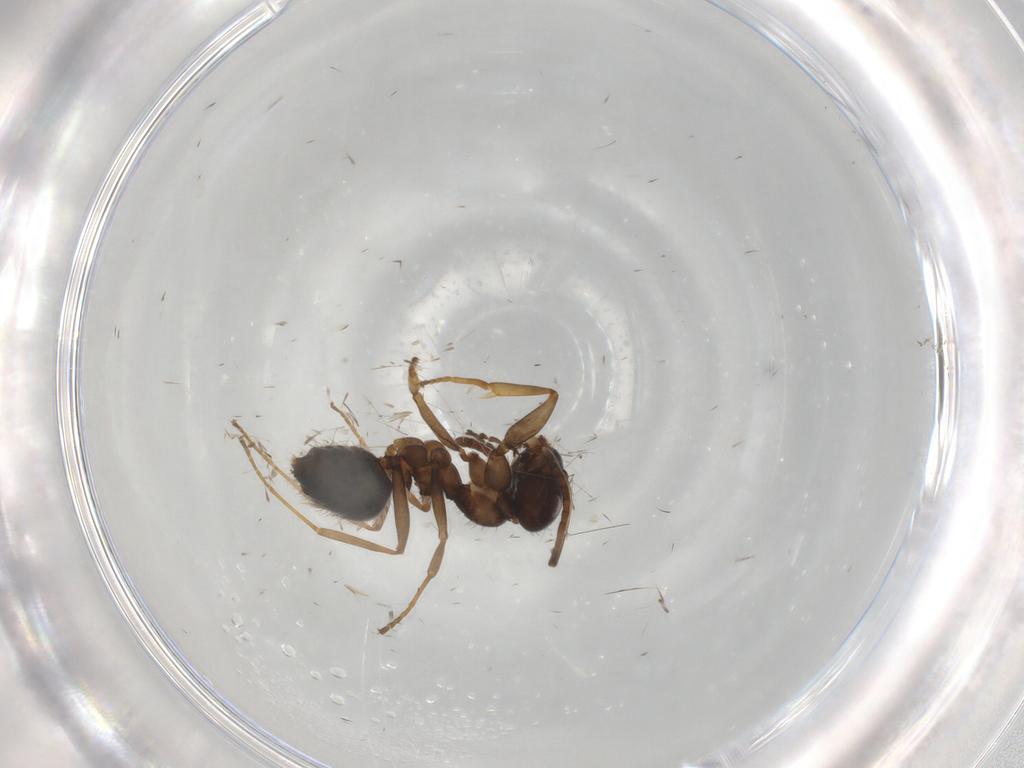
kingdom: Animalia
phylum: Arthropoda
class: Insecta
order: Hymenoptera
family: Formicidae
